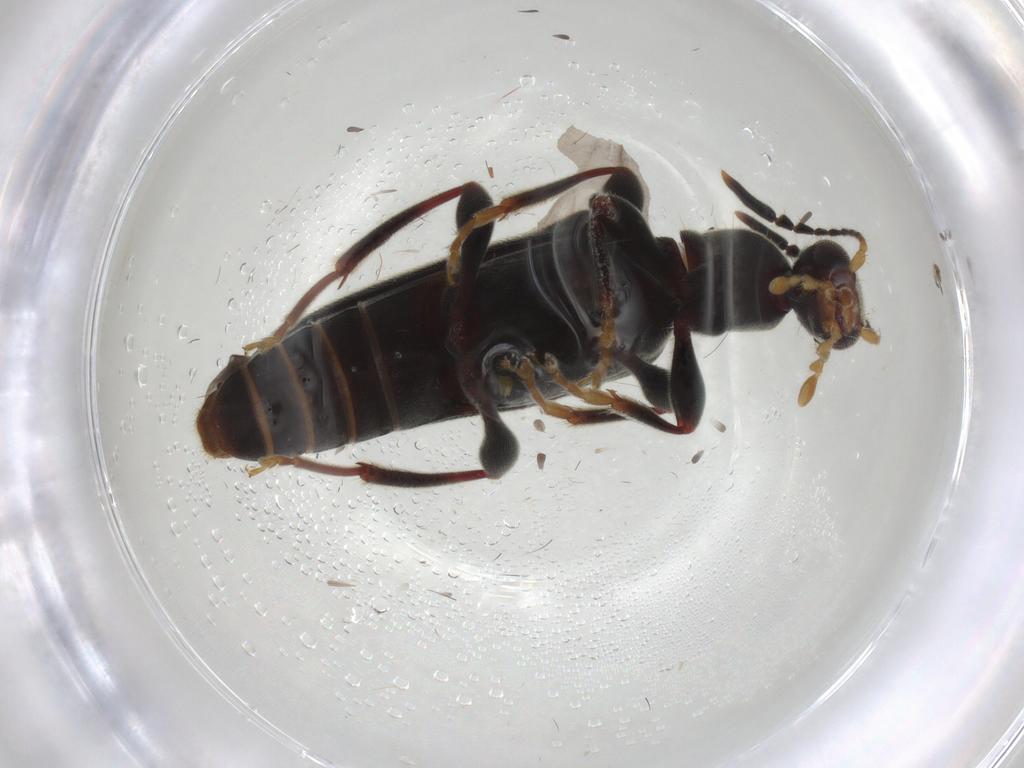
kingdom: Animalia
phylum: Arthropoda
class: Insecta
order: Coleoptera
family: Anthicidae
